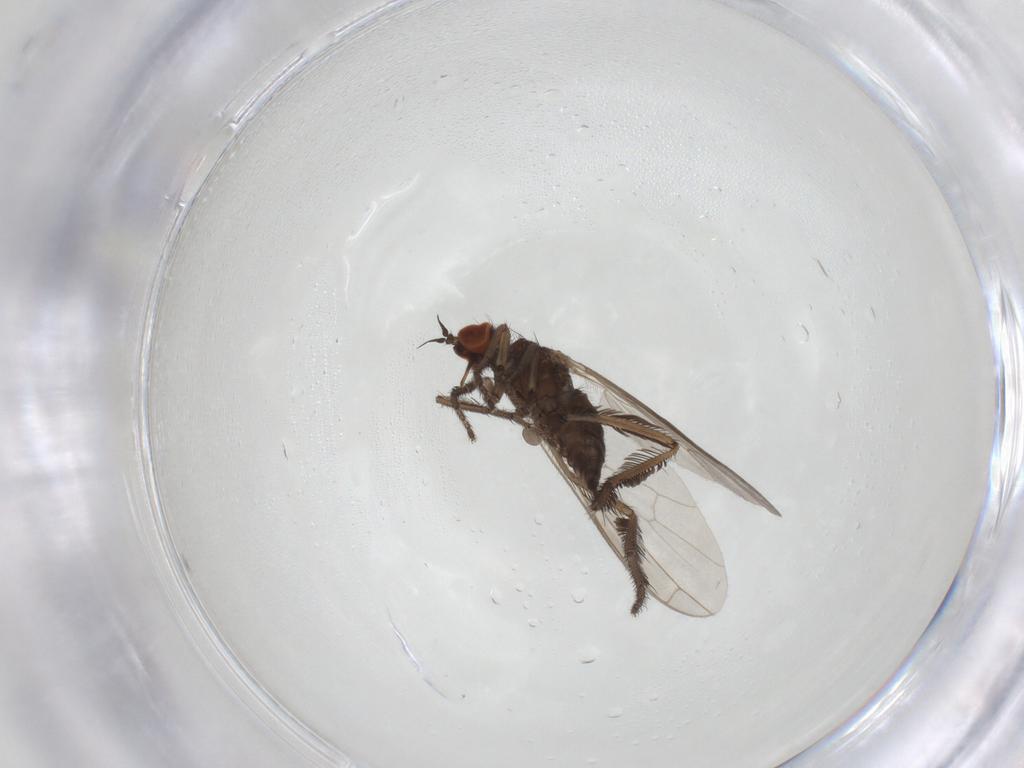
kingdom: Animalia
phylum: Arthropoda
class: Insecta
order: Diptera
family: Empididae
